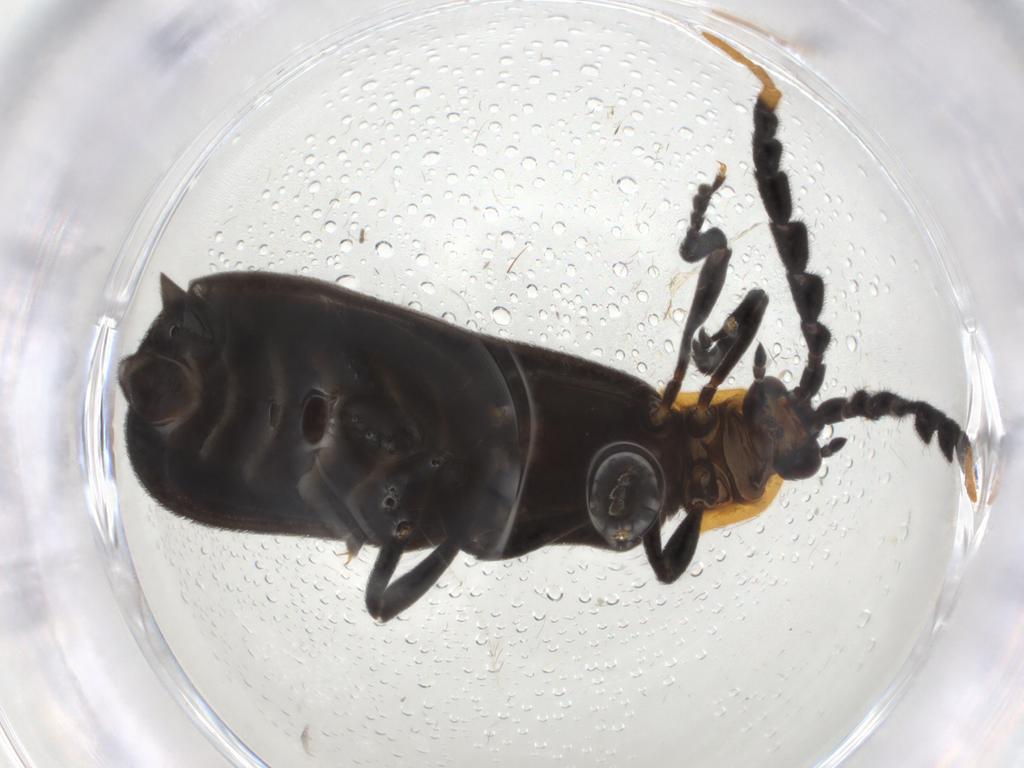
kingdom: Animalia
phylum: Arthropoda
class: Insecta
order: Coleoptera
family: Lycidae
